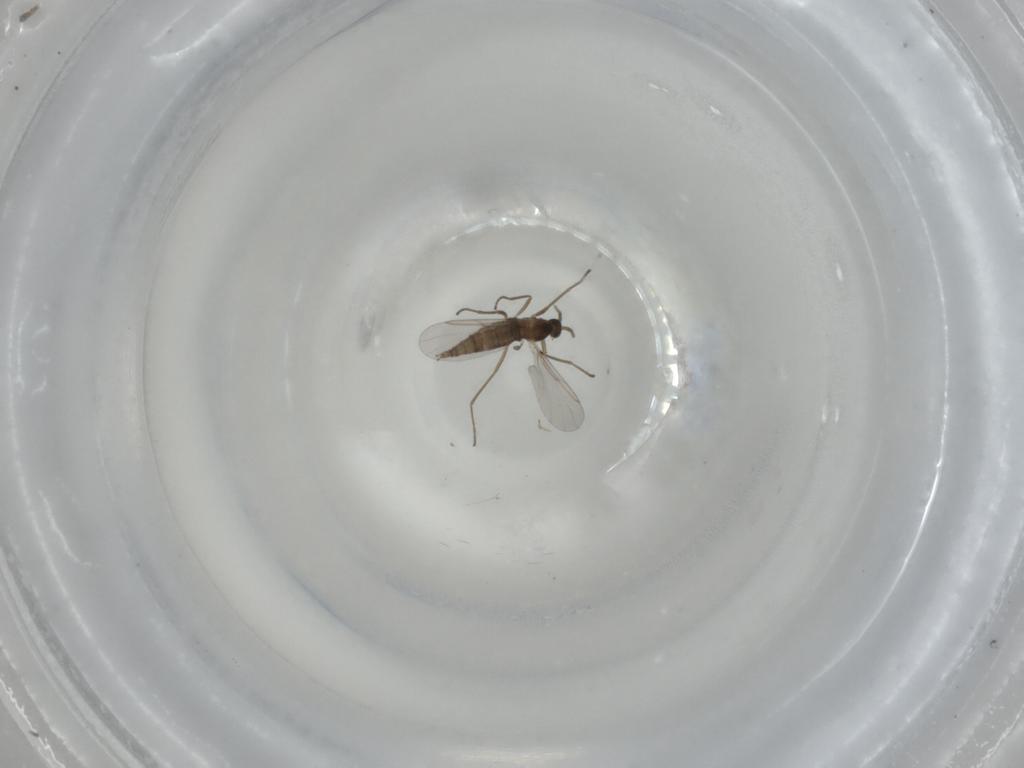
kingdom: Animalia
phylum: Arthropoda
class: Insecta
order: Diptera
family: Cecidomyiidae
